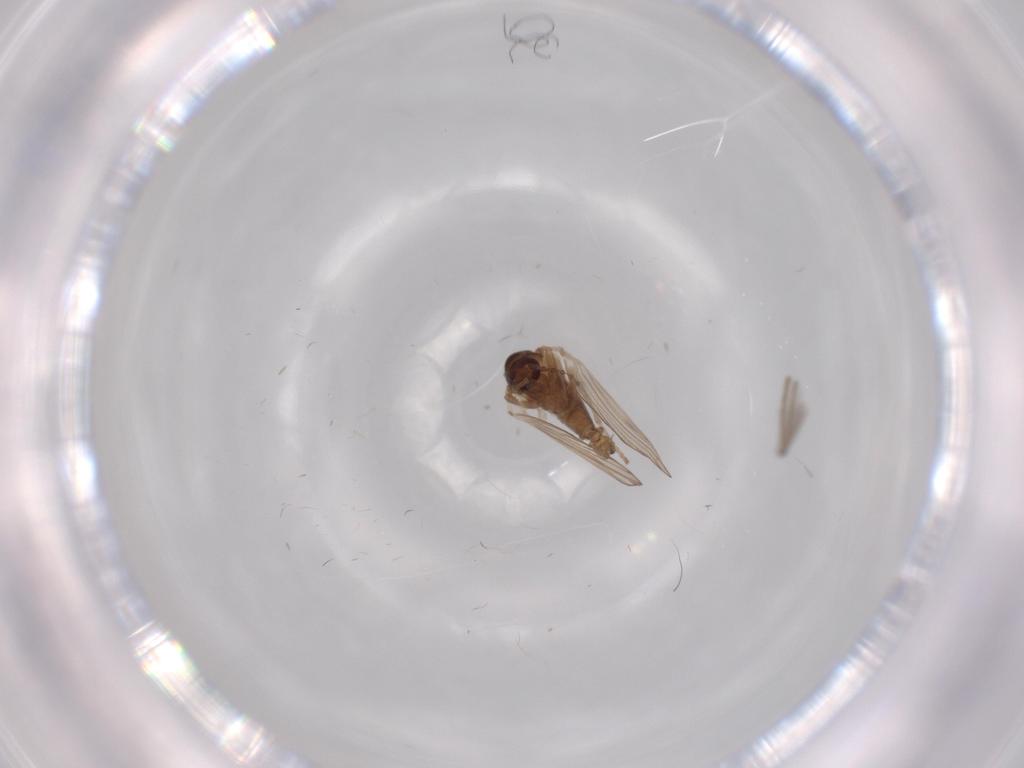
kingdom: Animalia
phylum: Arthropoda
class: Insecta
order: Diptera
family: Psychodidae
